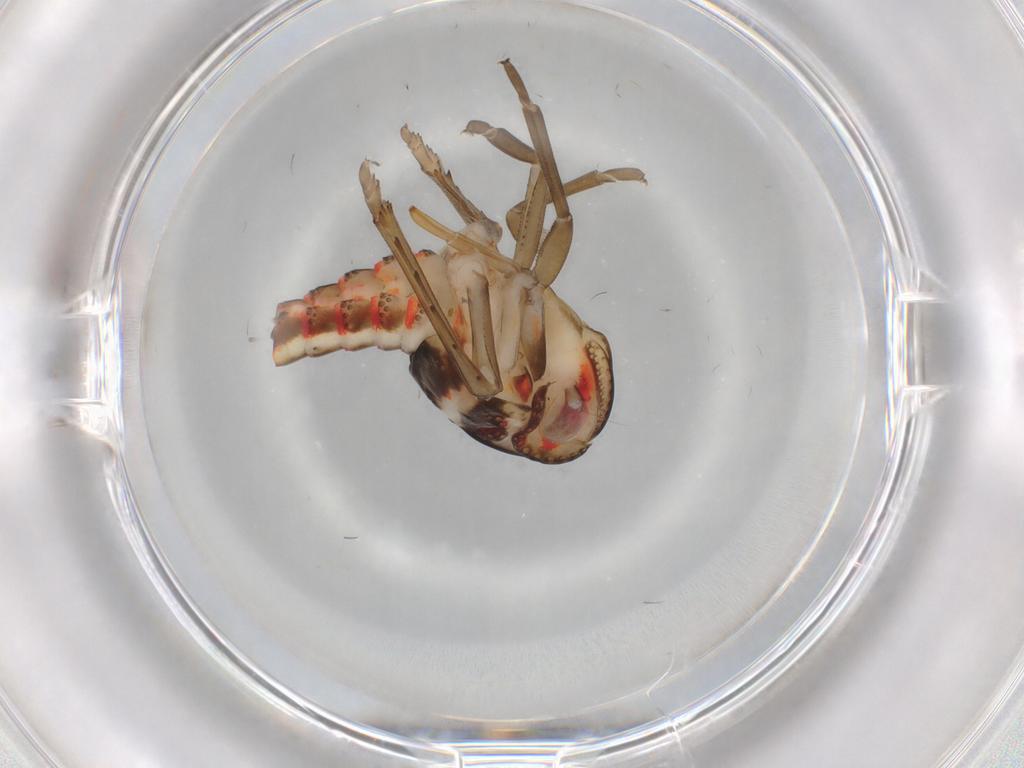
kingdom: Animalia
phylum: Arthropoda
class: Insecta
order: Hemiptera
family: Nogodinidae
